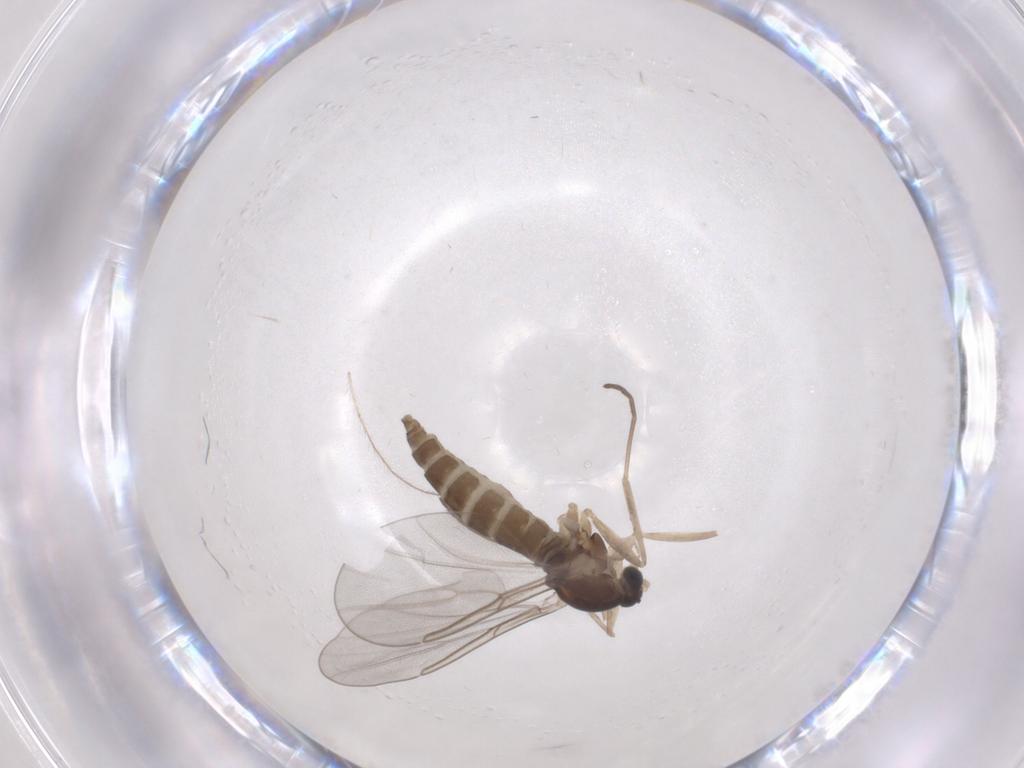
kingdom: Animalia
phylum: Arthropoda
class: Insecta
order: Diptera
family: Cecidomyiidae
